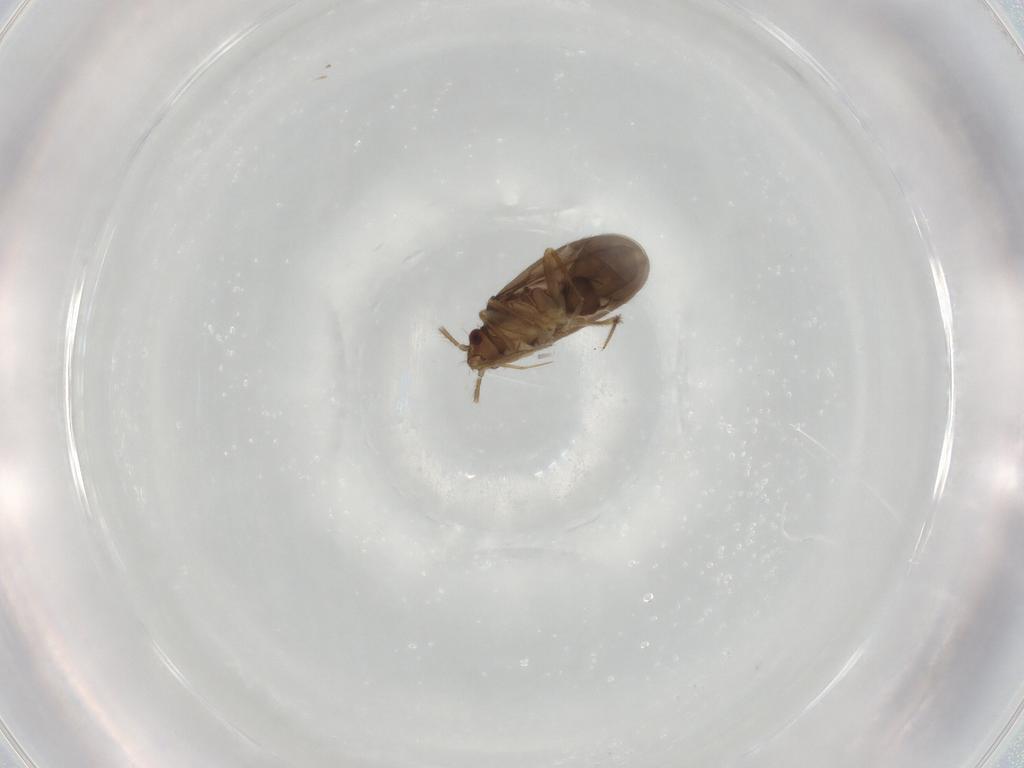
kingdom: Animalia
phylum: Arthropoda
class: Insecta
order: Hemiptera
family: Ceratocombidae
